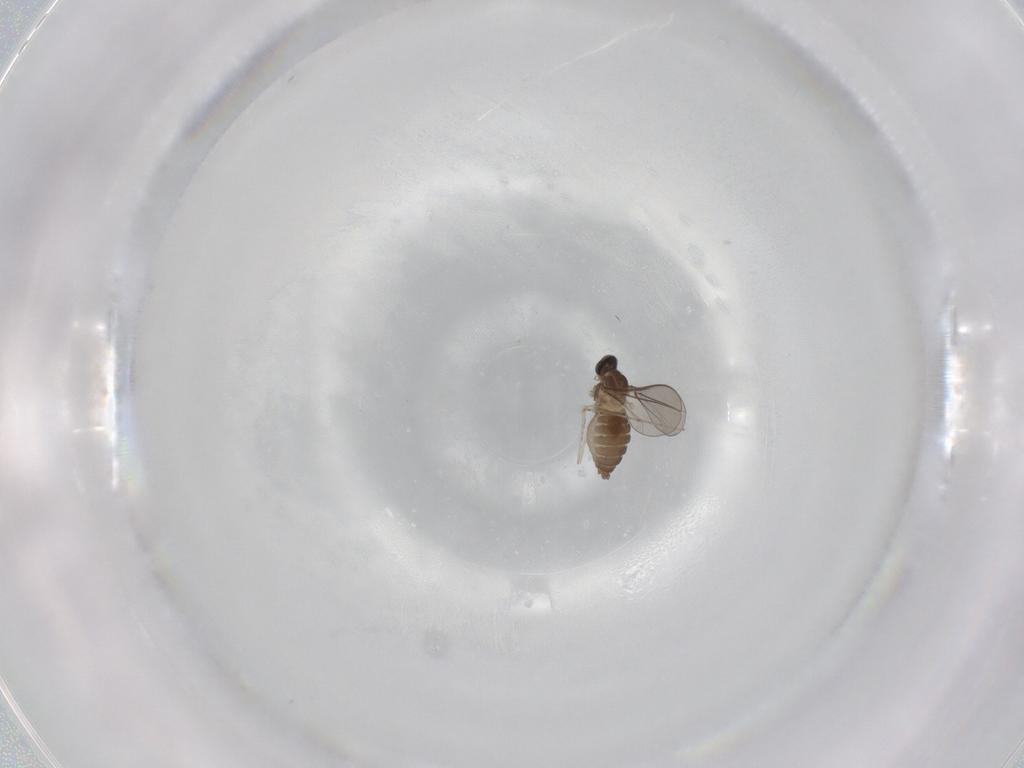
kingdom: Animalia
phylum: Arthropoda
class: Insecta
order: Diptera
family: Cecidomyiidae
